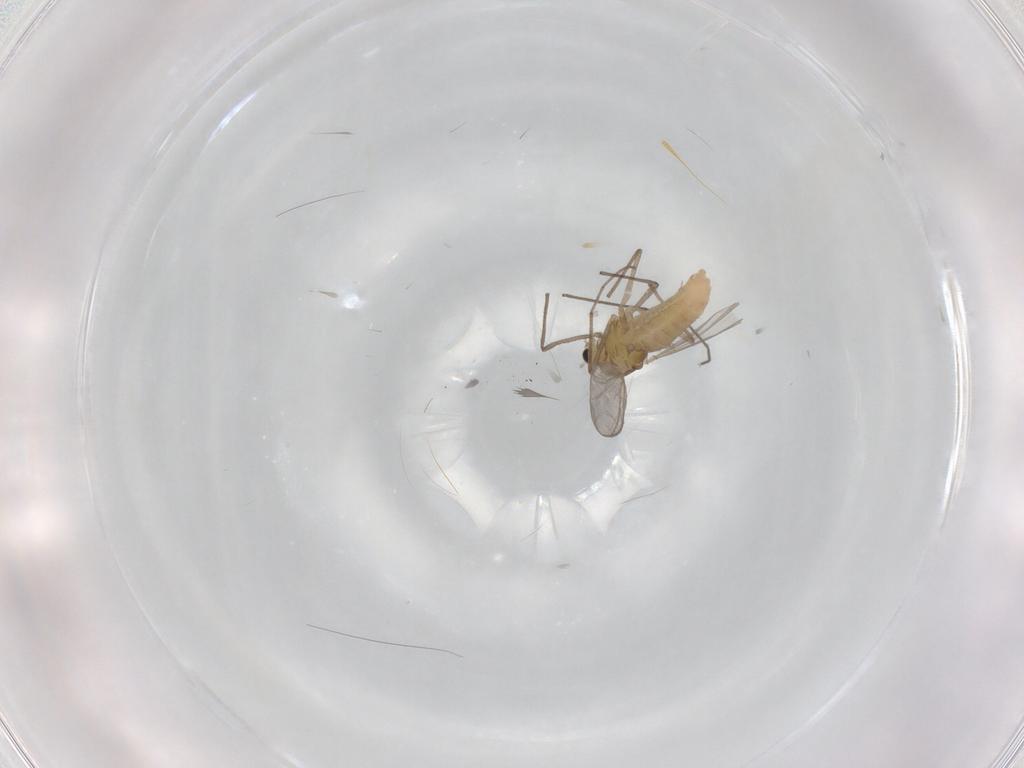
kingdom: Animalia
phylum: Arthropoda
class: Insecta
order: Diptera
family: Chironomidae
